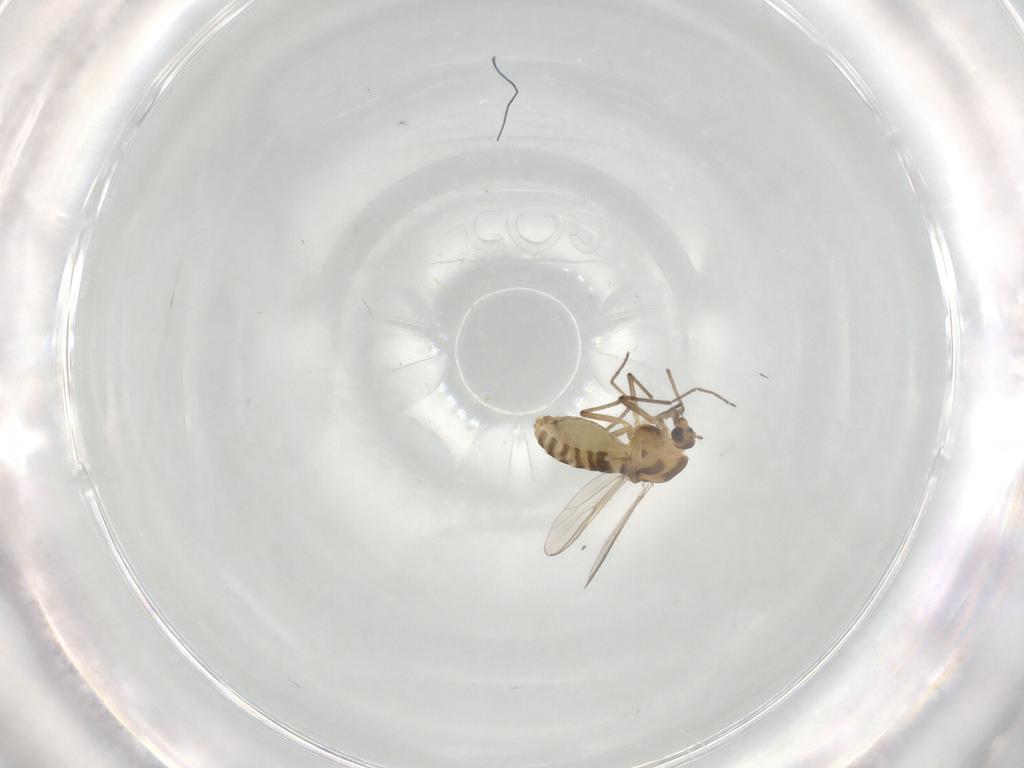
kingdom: Animalia
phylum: Arthropoda
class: Insecta
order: Diptera
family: Chironomidae
